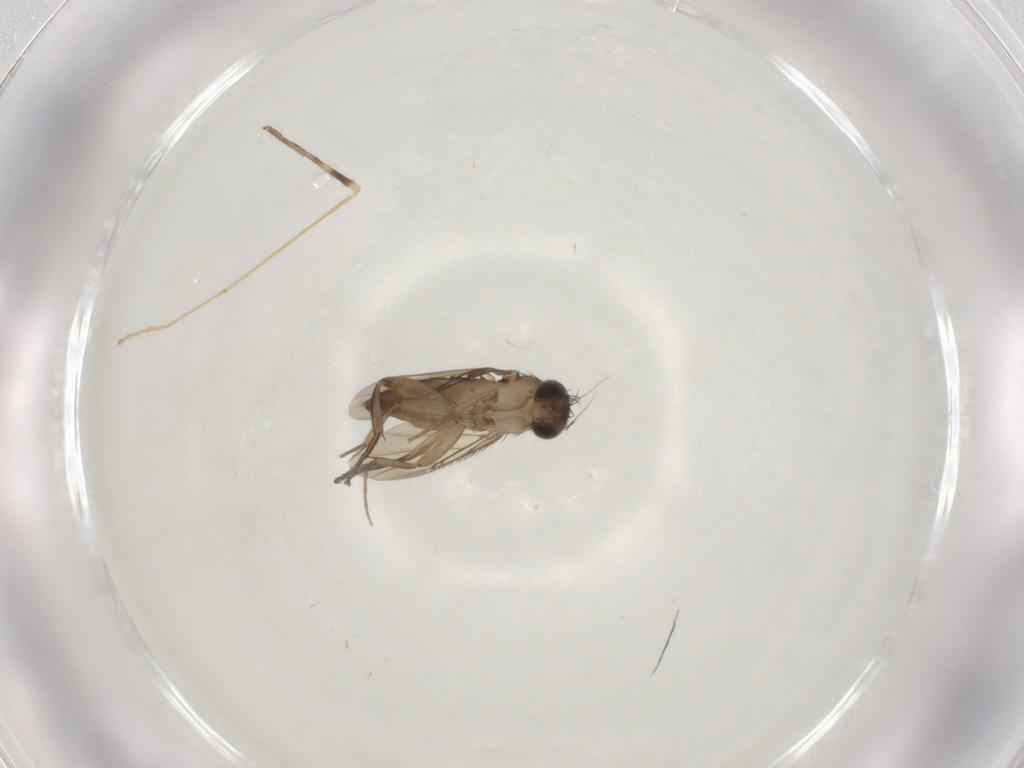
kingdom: Animalia
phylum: Arthropoda
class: Insecta
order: Diptera
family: Phoridae
